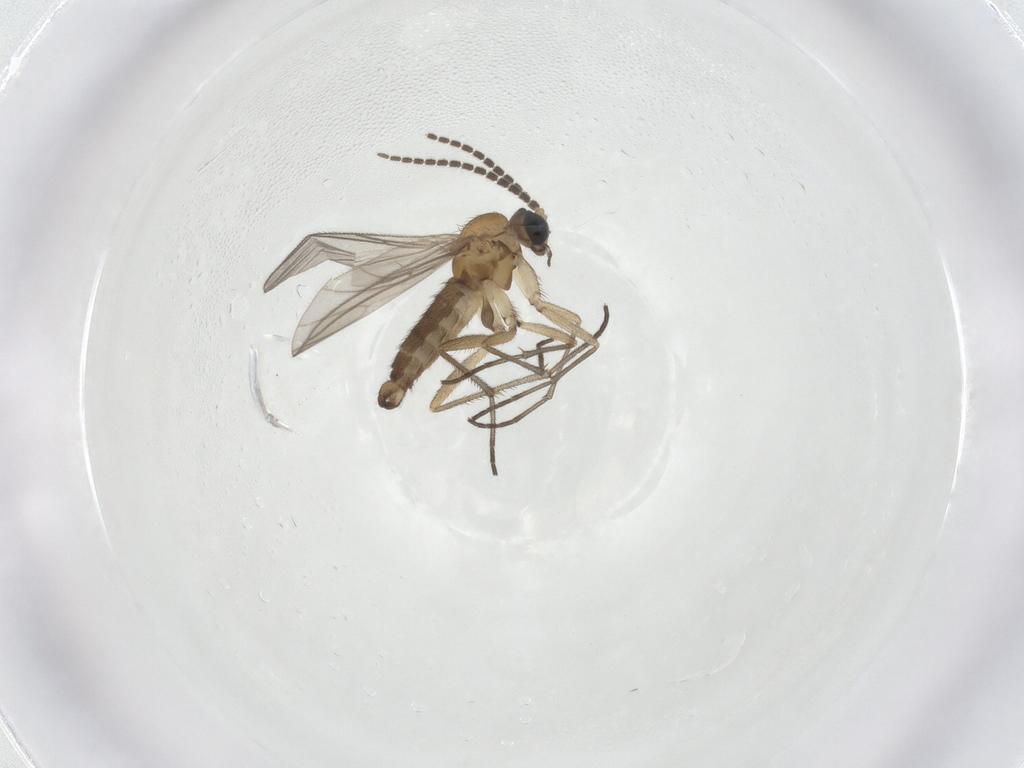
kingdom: Animalia
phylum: Arthropoda
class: Insecta
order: Diptera
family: Sciaridae
